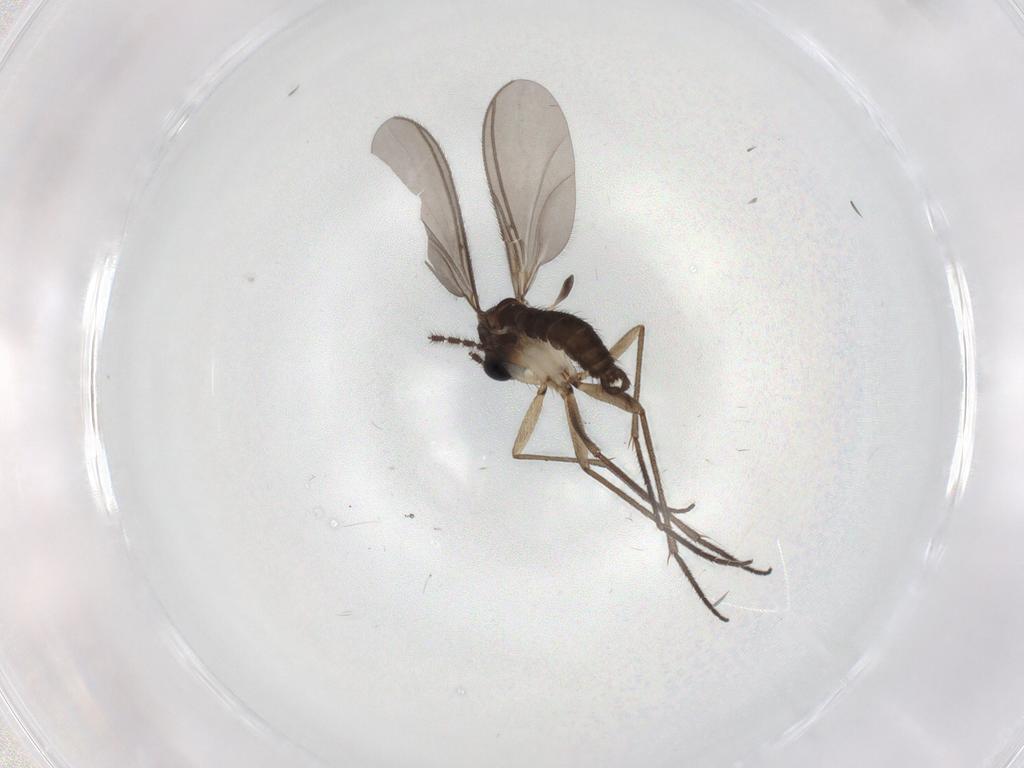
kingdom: Animalia
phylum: Arthropoda
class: Insecta
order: Diptera
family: Sciaridae
